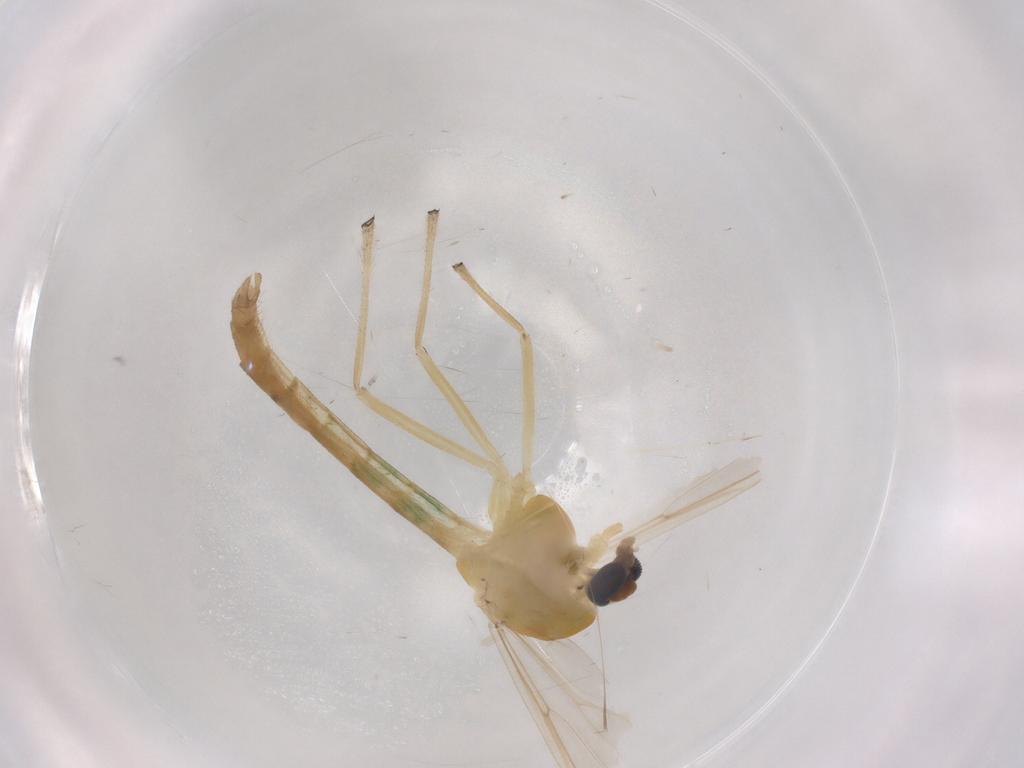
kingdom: Animalia
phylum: Arthropoda
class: Insecta
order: Diptera
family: Chironomidae
